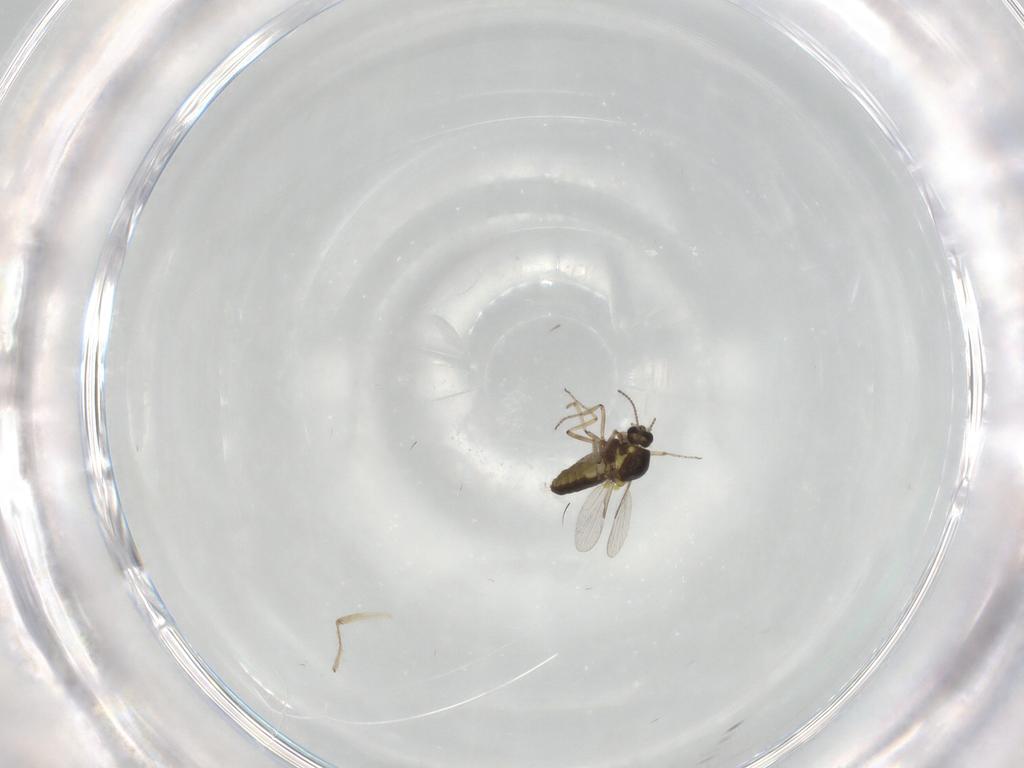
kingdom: Animalia
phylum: Arthropoda
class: Insecta
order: Diptera
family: Ceratopogonidae
